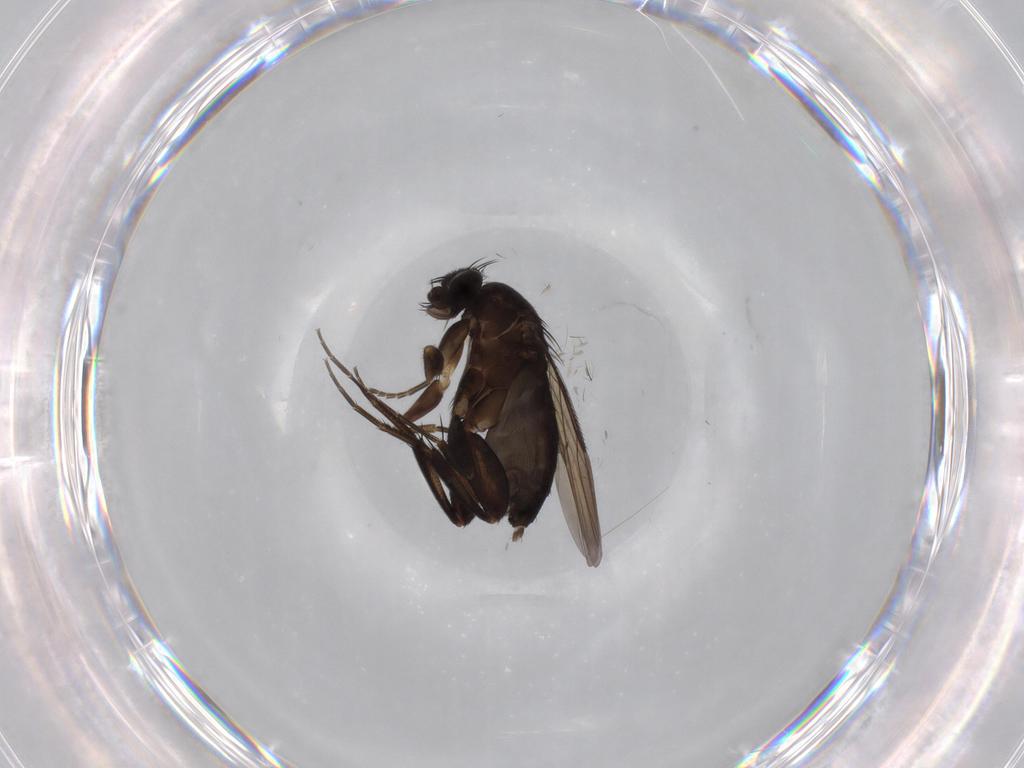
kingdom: Animalia
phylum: Arthropoda
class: Insecta
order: Diptera
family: Phoridae
